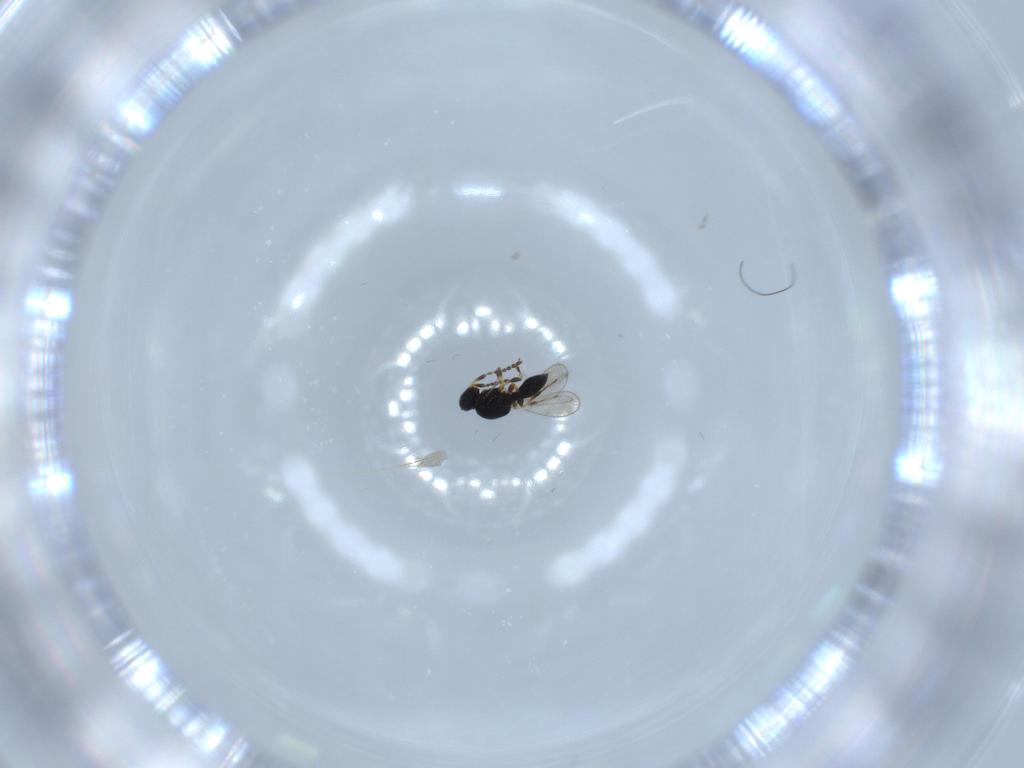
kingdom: Animalia
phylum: Arthropoda
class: Insecta
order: Hymenoptera
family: Platygastridae
